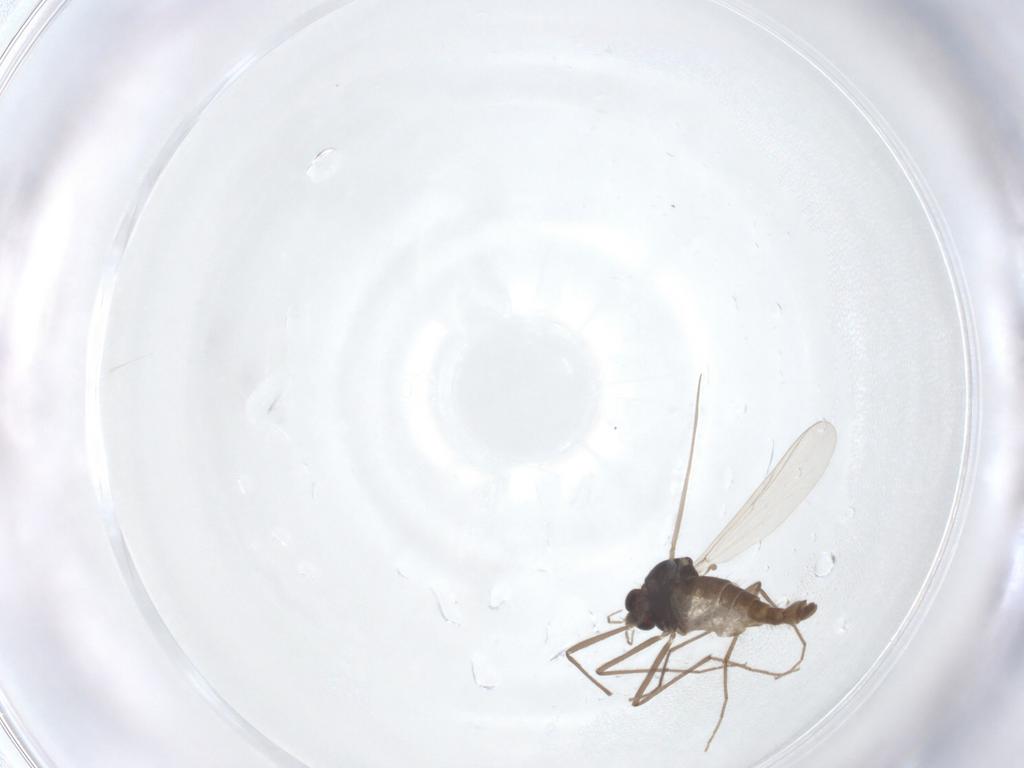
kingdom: Animalia
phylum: Arthropoda
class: Insecta
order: Diptera
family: Chironomidae
